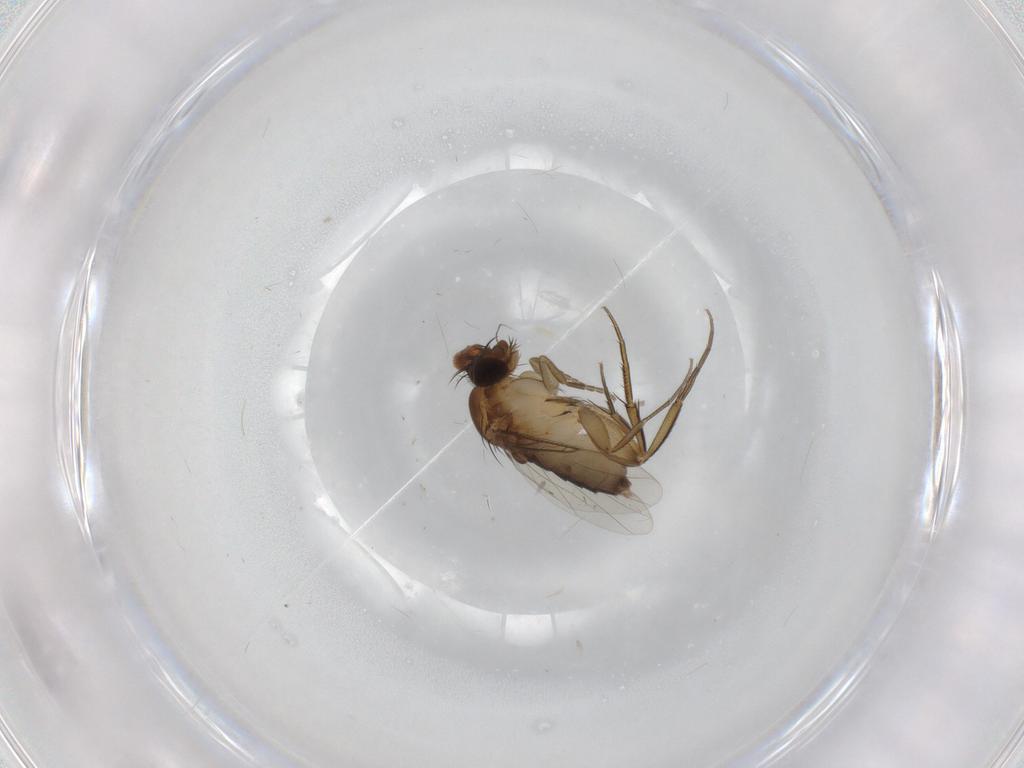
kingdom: Animalia
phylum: Arthropoda
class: Insecta
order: Diptera
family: Phoridae
